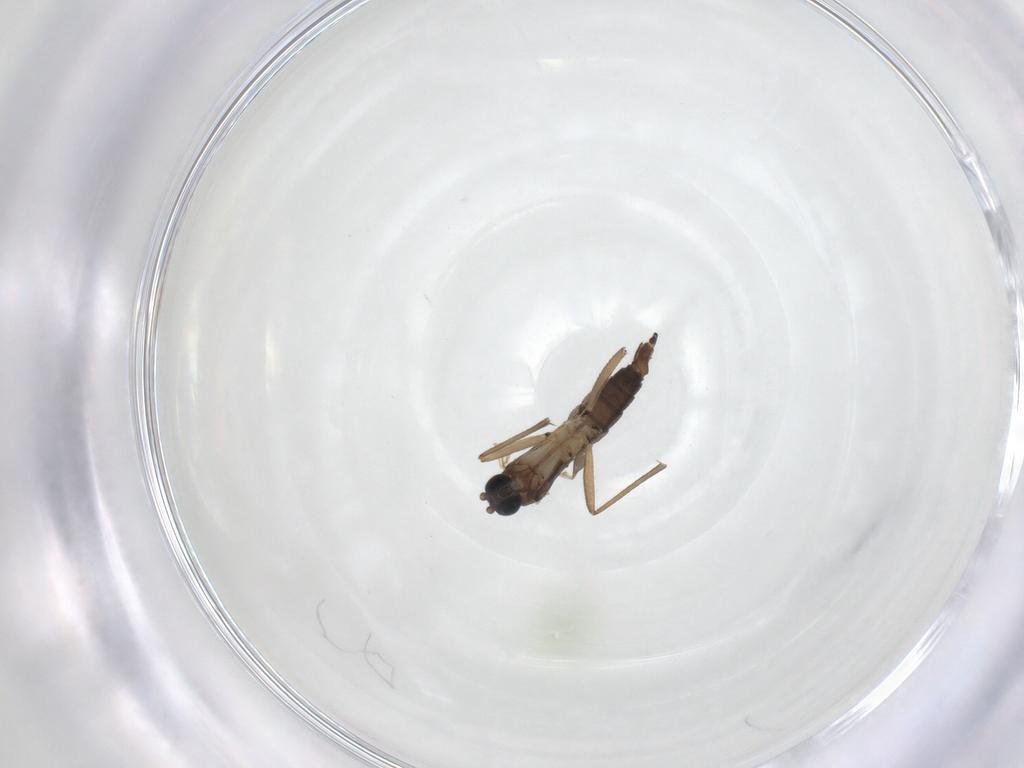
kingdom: Animalia
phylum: Arthropoda
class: Insecta
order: Diptera
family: Sciaridae
